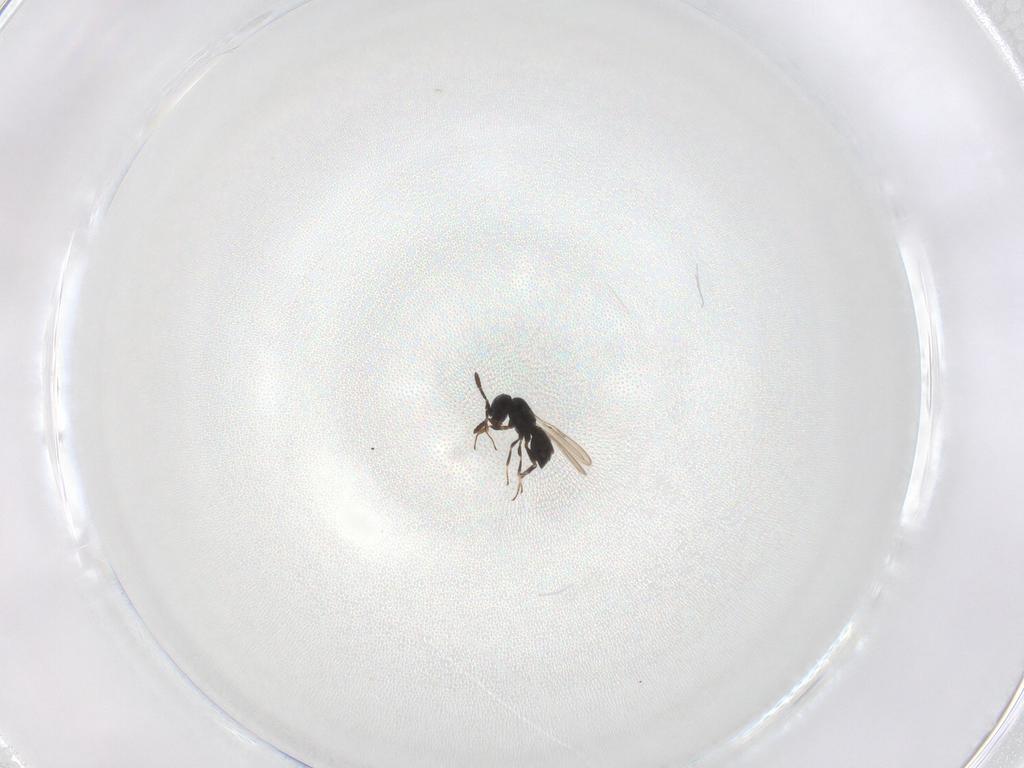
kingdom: Animalia
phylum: Arthropoda
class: Insecta
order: Hymenoptera
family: Scelionidae
